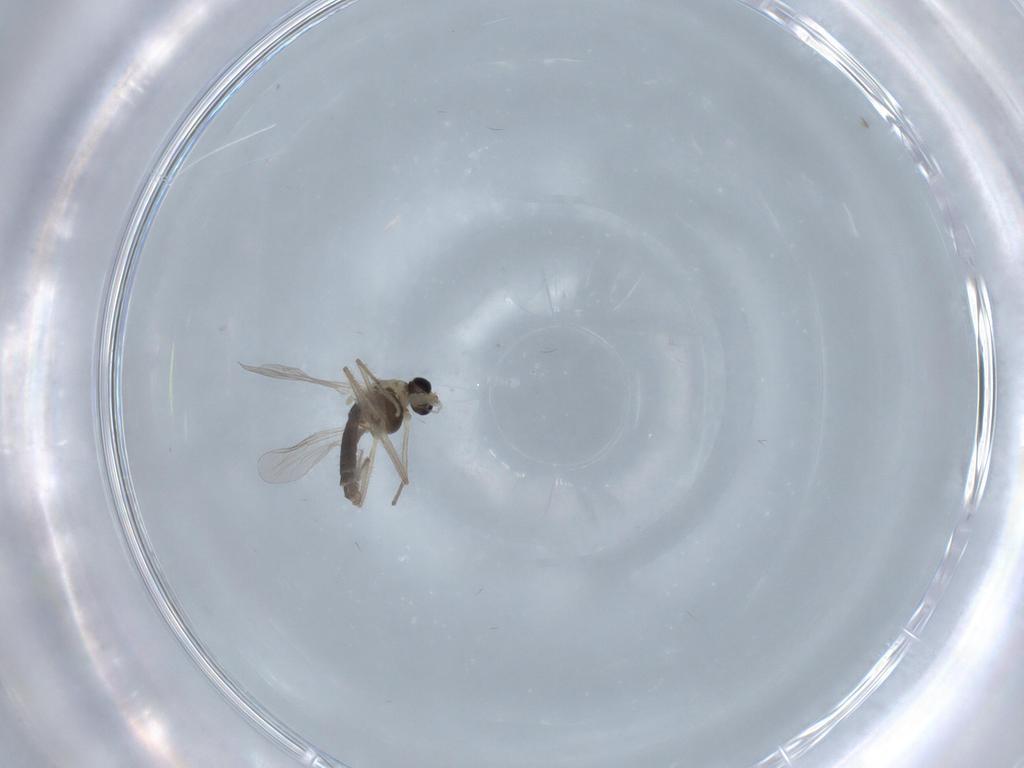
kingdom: Animalia
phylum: Arthropoda
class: Insecta
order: Diptera
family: Chironomidae
